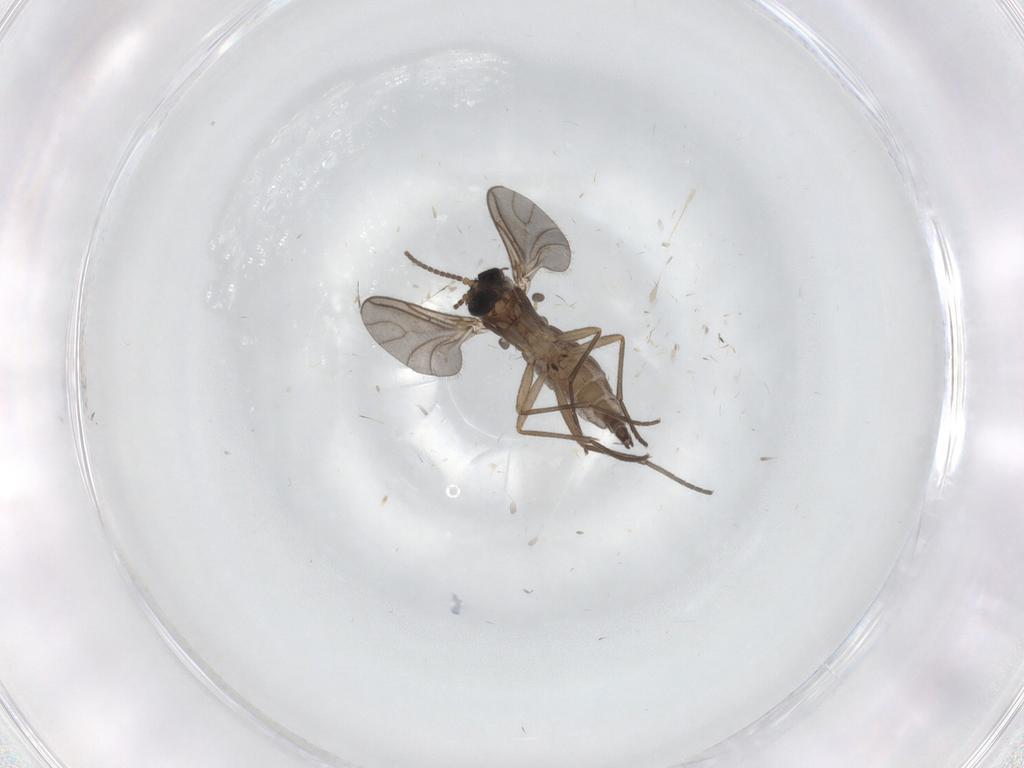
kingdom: Animalia
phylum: Arthropoda
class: Insecta
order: Diptera
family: Sciaridae
